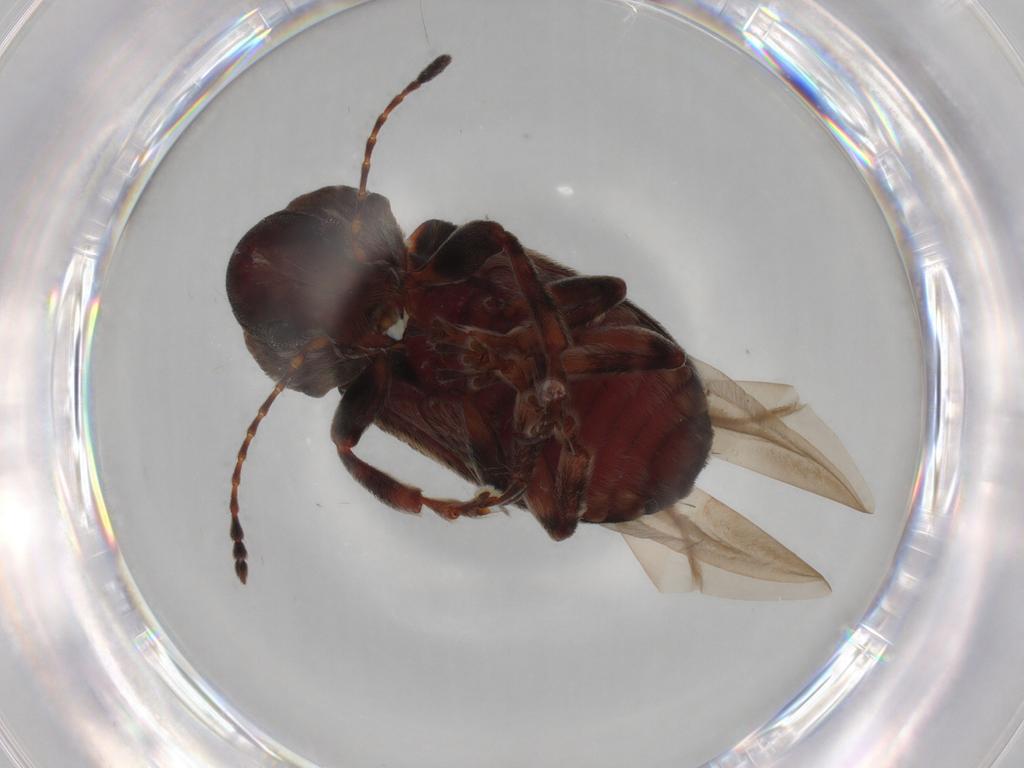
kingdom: Animalia
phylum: Arthropoda
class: Insecta
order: Coleoptera
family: Anthribidae
